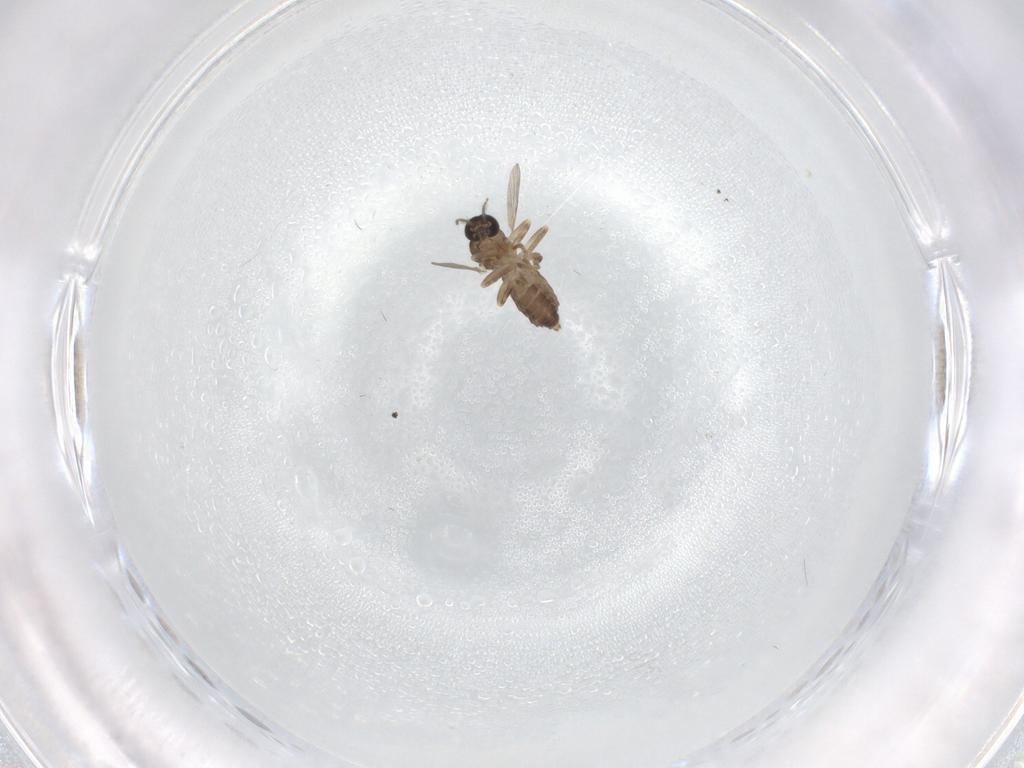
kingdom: Animalia
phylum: Arthropoda
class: Insecta
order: Diptera
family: Ceratopogonidae
